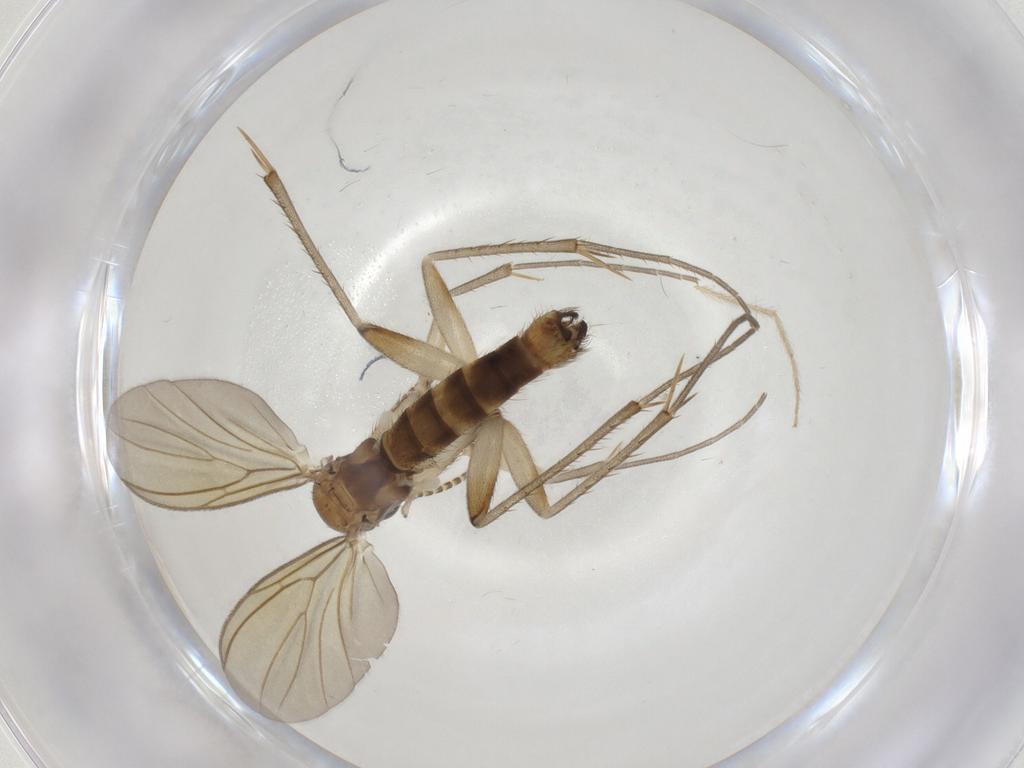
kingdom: Animalia
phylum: Arthropoda
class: Insecta
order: Diptera
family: Mycetophilidae
